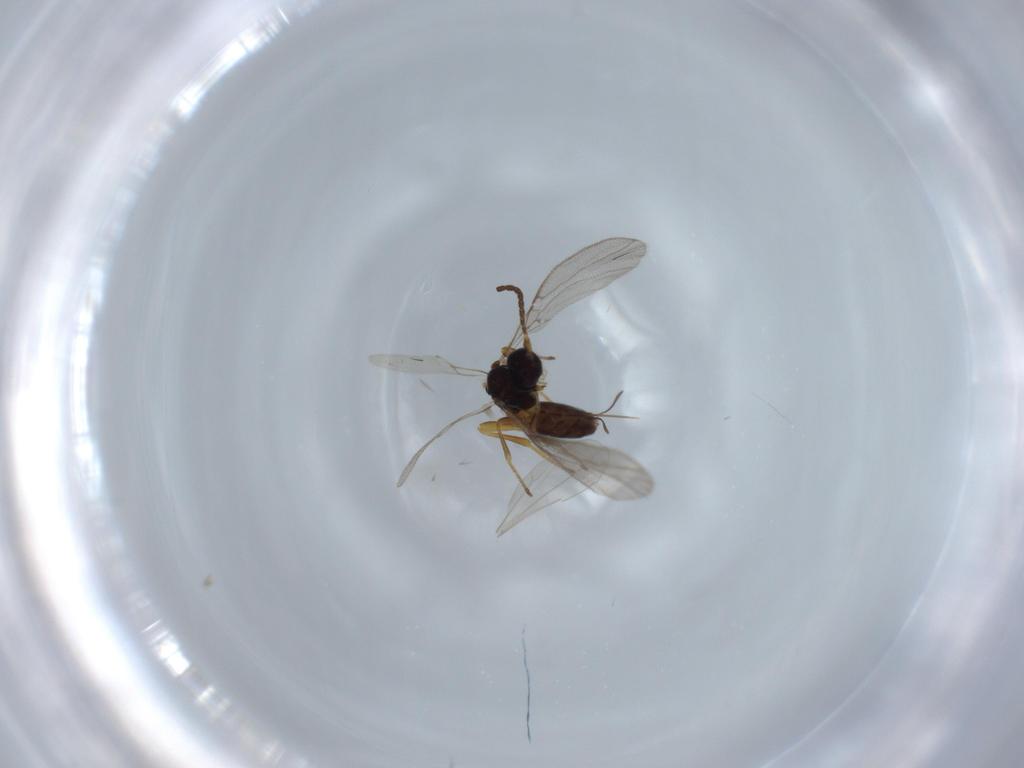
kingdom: Animalia
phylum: Arthropoda
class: Insecta
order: Hymenoptera
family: Braconidae
